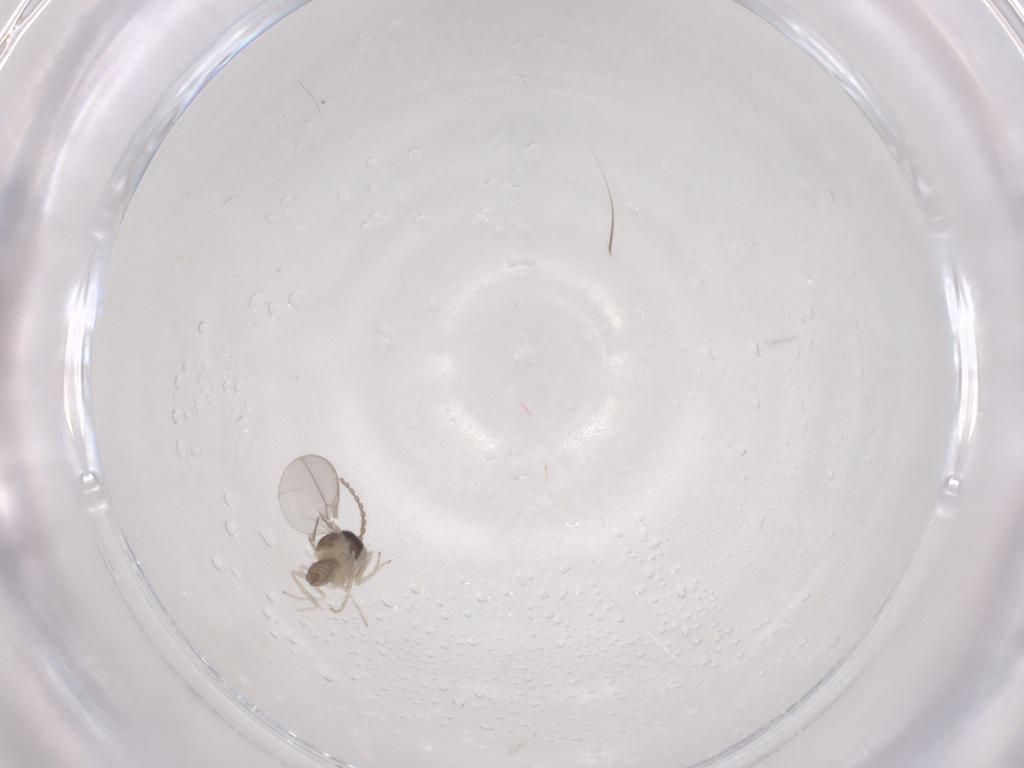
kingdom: Animalia
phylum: Arthropoda
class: Insecta
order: Diptera
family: Cecidomyiidae
